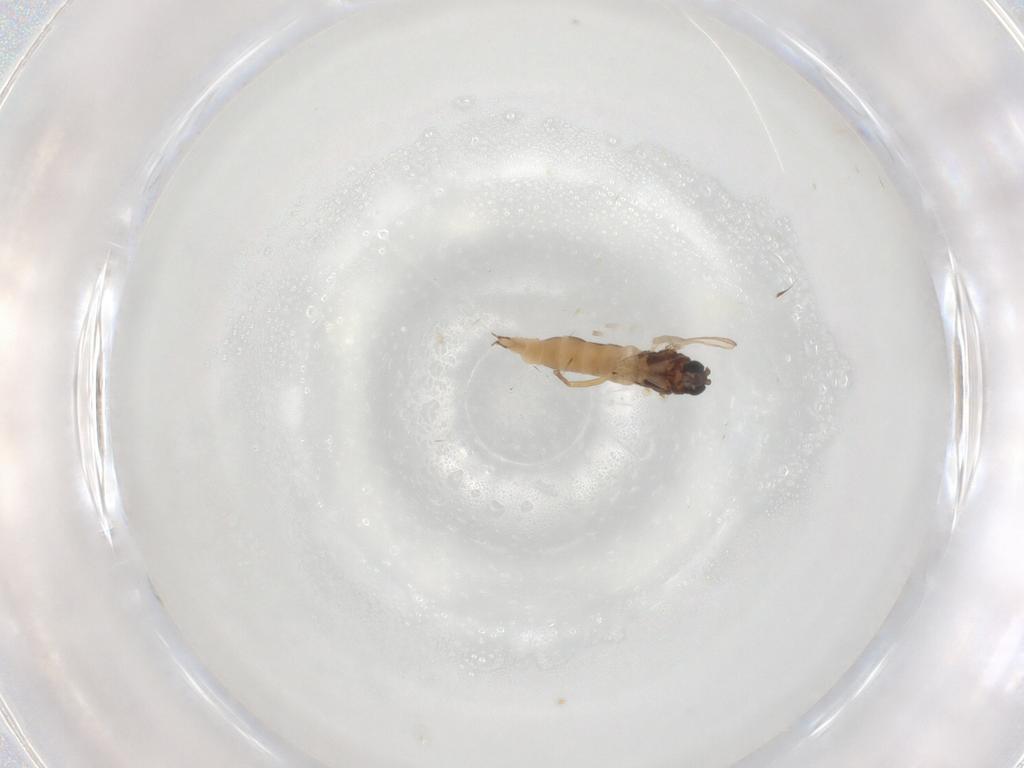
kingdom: Animalia
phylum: Arthropoda
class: Insecta
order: Diptera
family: Sciaridae
